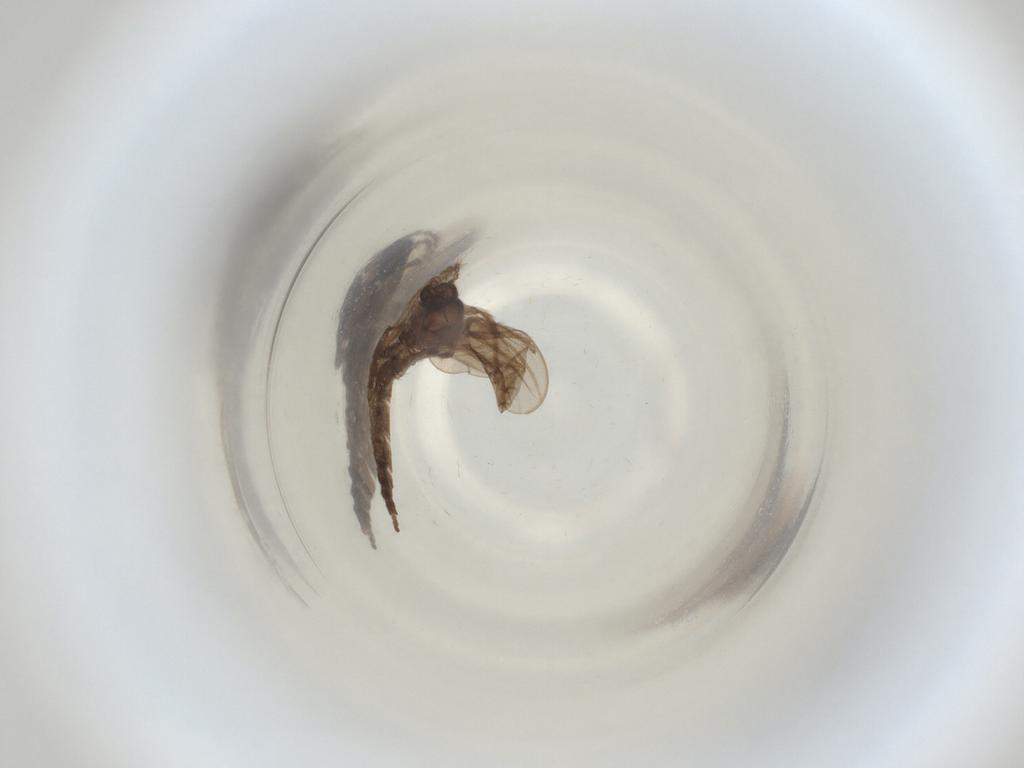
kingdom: Animalia
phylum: Arthropoda
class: Insecta
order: Diptera
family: Cecidomyiidae
